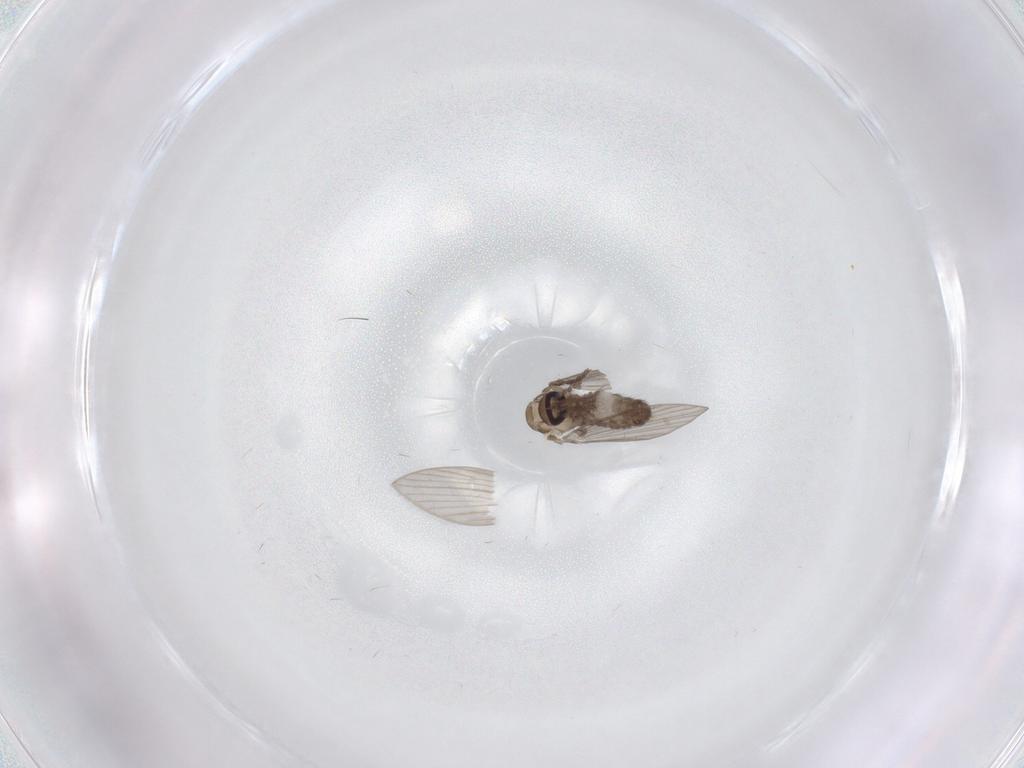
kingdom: Animalia
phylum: Arthropoda
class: Insecta
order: Diptera
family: Psychodidae
